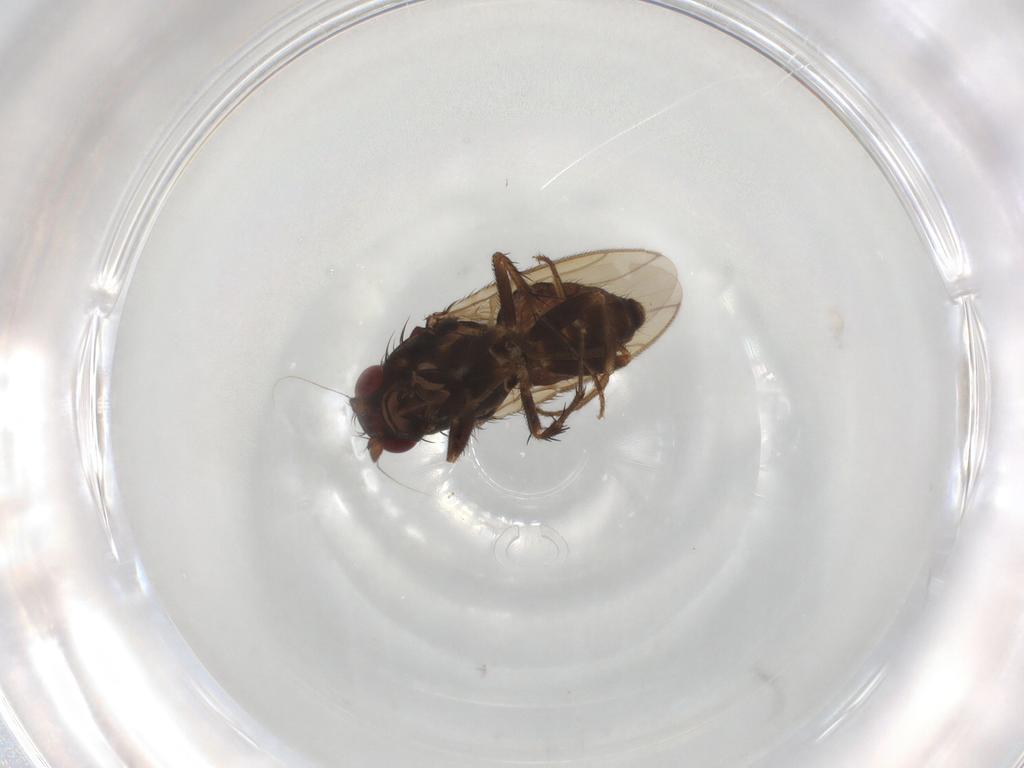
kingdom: Animalia
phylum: Arthropoda
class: Insecta
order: Diptera
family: Sphaeroceridae
